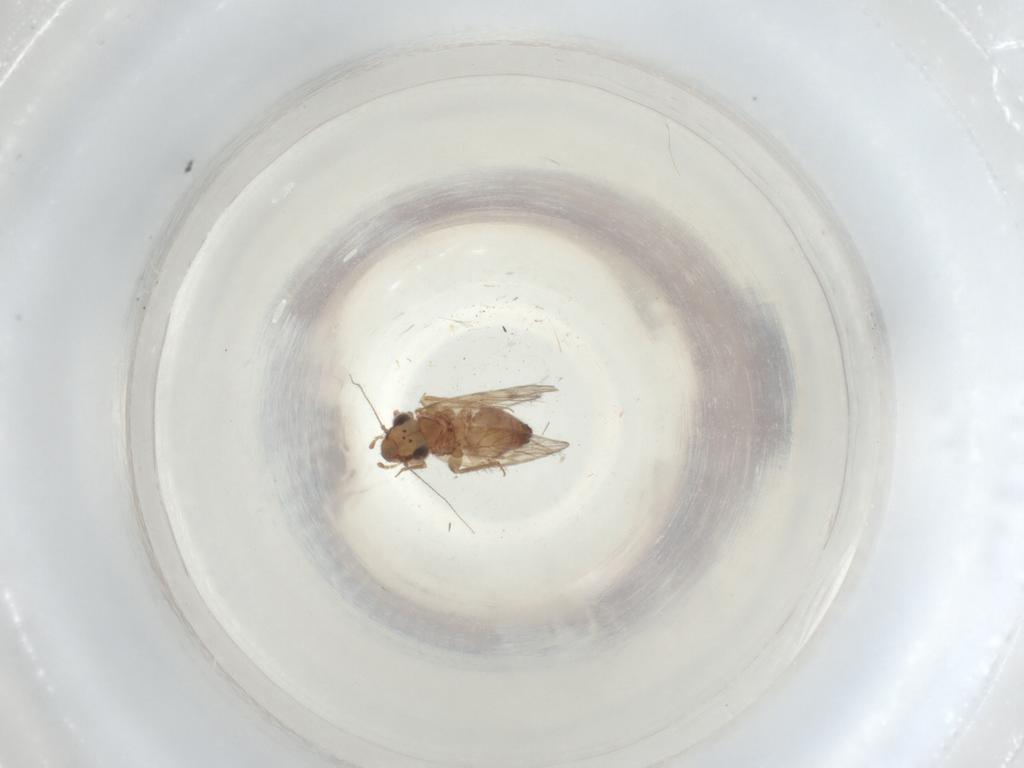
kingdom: Animalia
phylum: Arthropoda
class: Insecta
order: Psocodea
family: Lepidopsocidae
